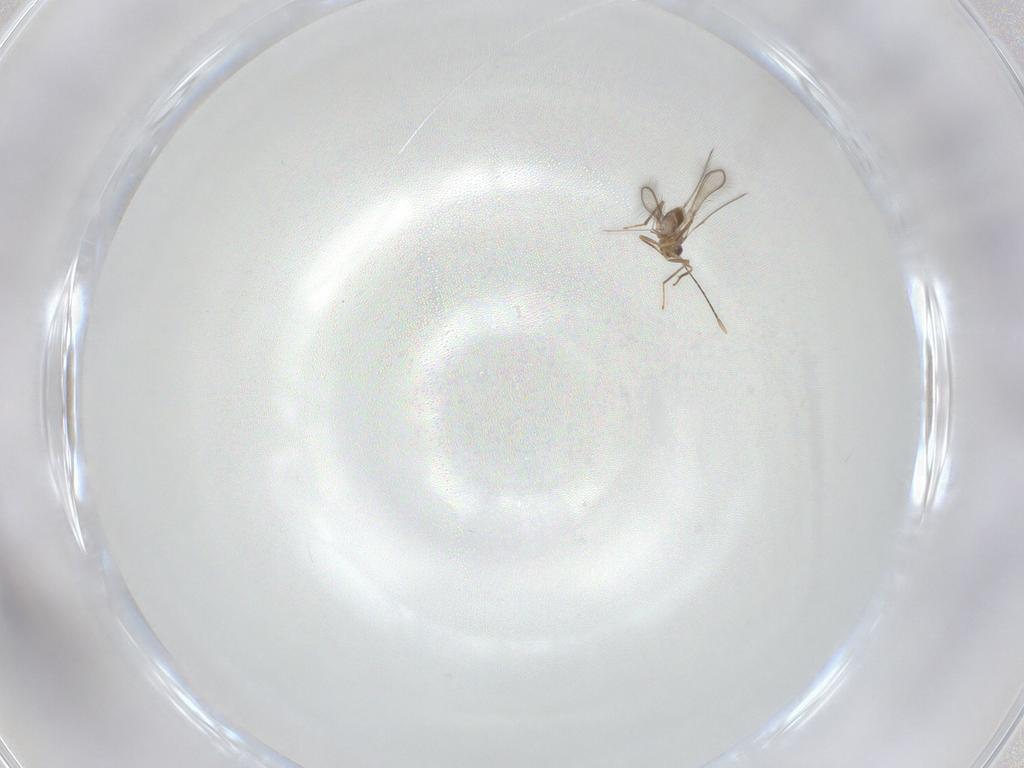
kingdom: Animalia
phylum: Arthropoda
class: Insecta
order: Hymenoptera
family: Mymaridae
